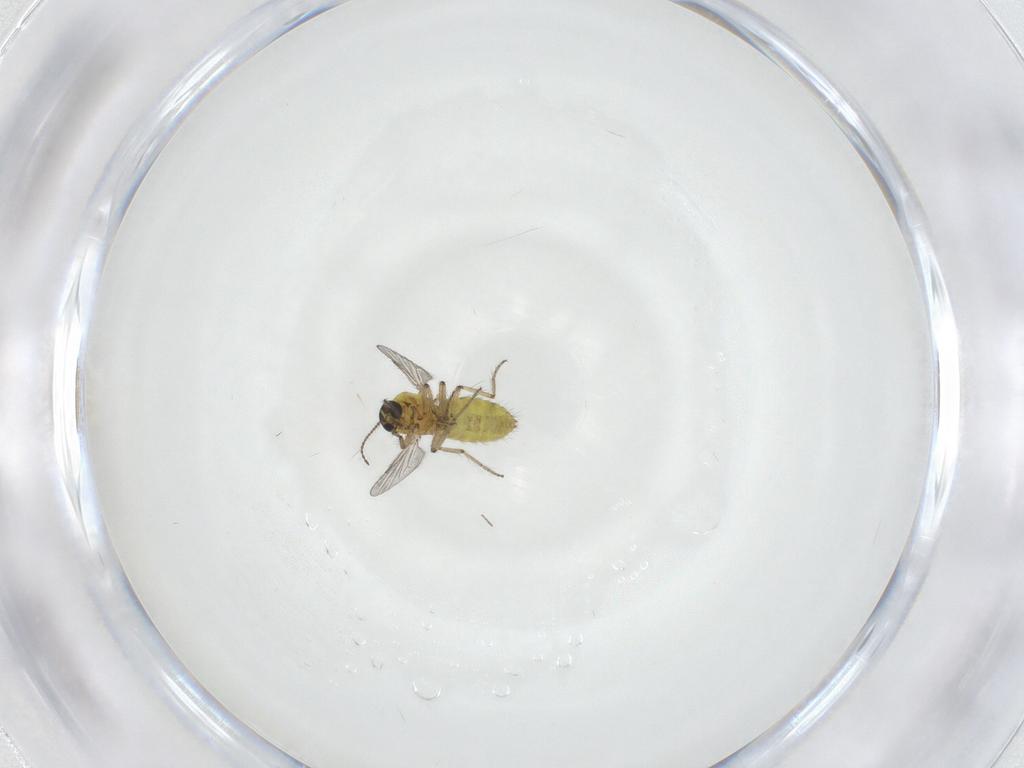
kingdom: Animalia
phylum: Arthropoda
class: Insecta
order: Diptera
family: Ceratopogonidae
